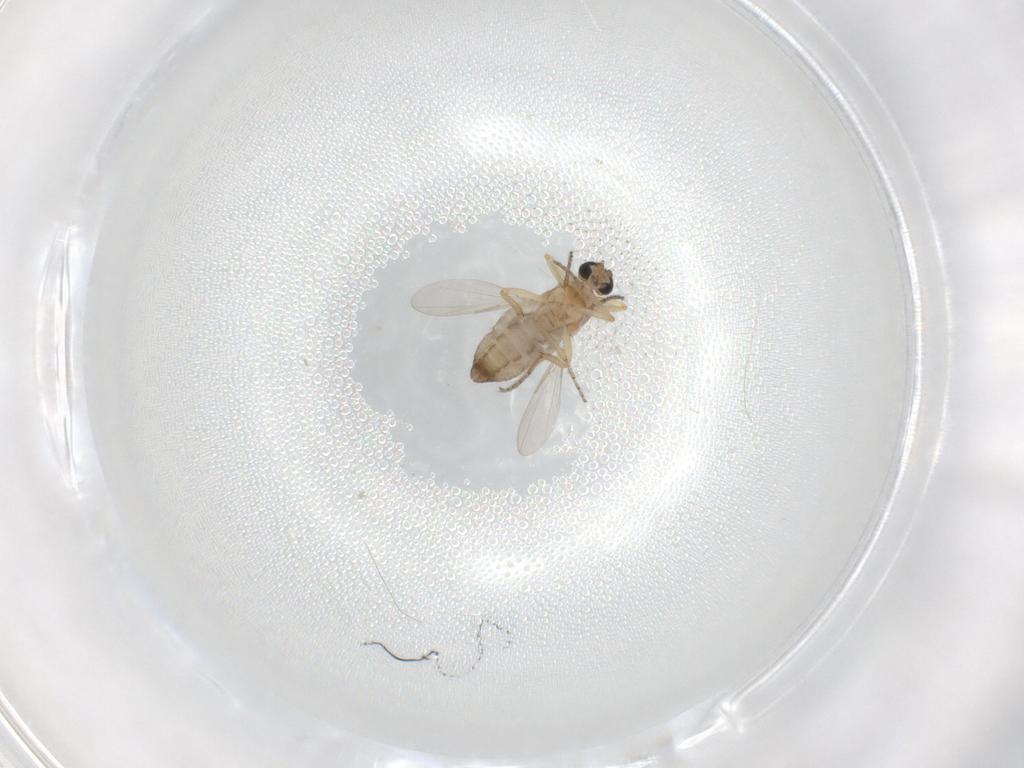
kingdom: Animalia
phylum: Arthropoda
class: Insecta
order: Diptera
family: Ceratopogonidae
